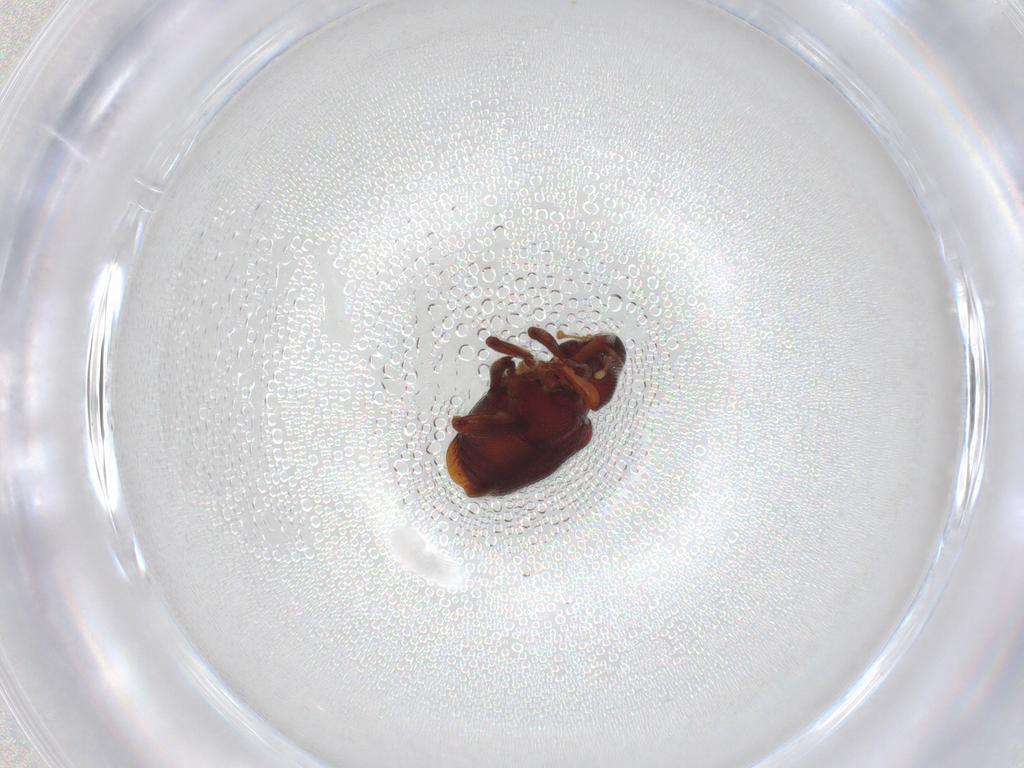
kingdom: Animalia
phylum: Arthropoda
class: Insecta
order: Coleoptera
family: Curculionidae
